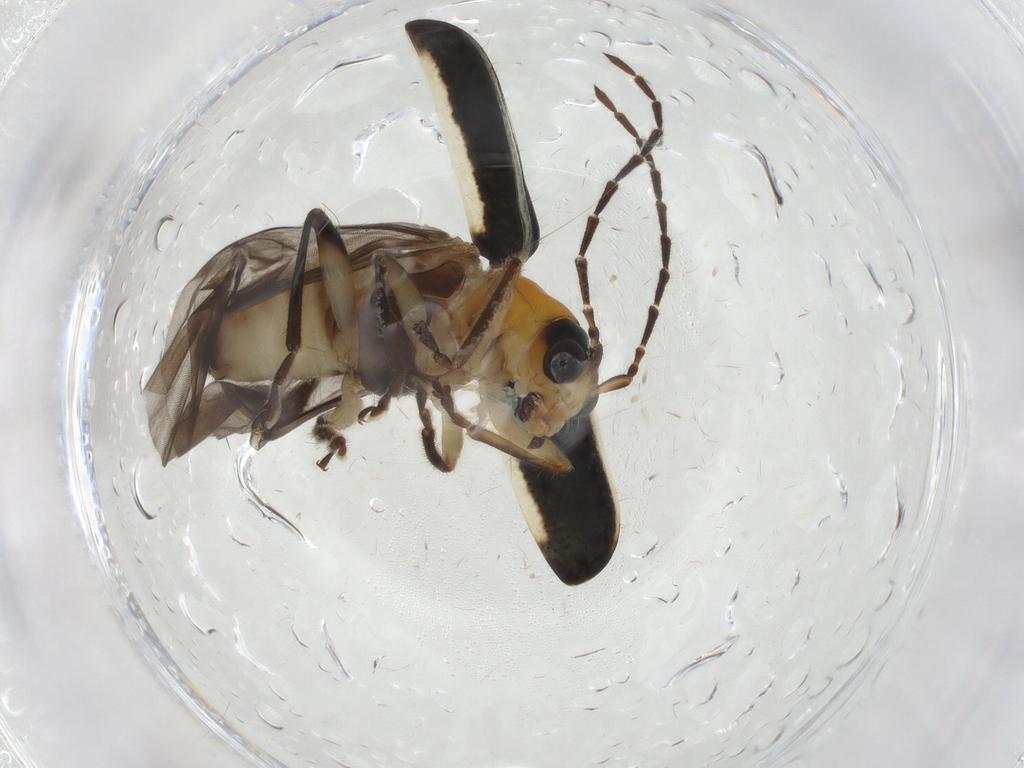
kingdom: Animalia
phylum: Arthropoda
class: Insecta
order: Coleoptera
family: Chrysomelidae
